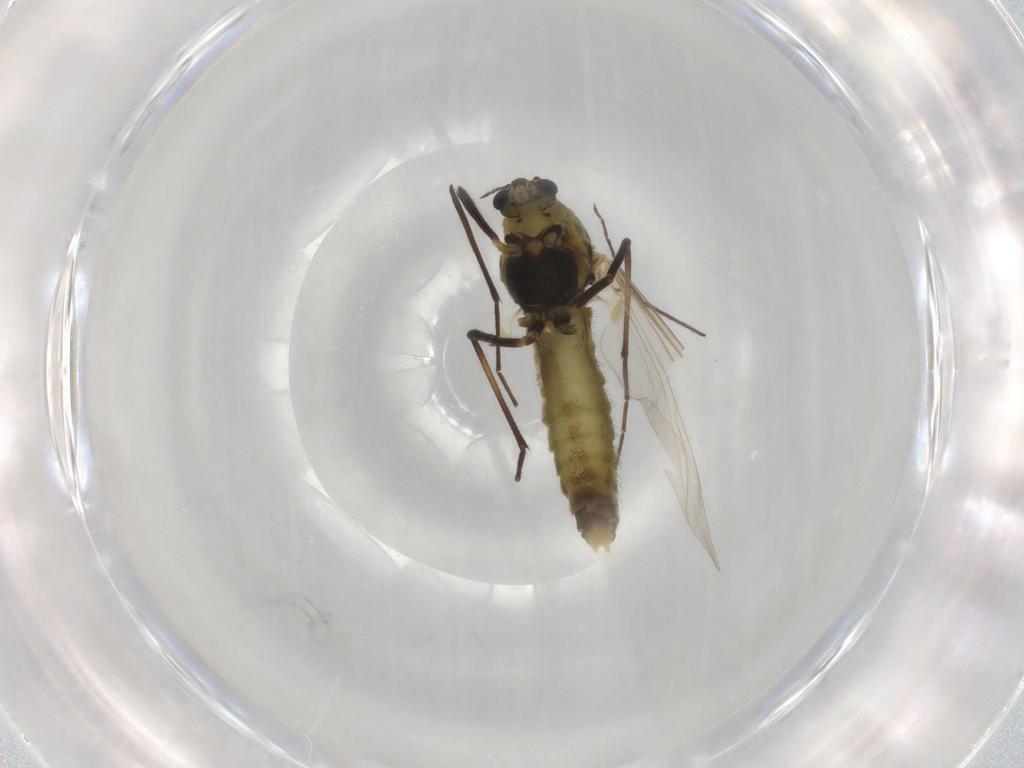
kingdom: Animalia
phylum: Arthropoda
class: Insecta
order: Diptera
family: Chironomidae
